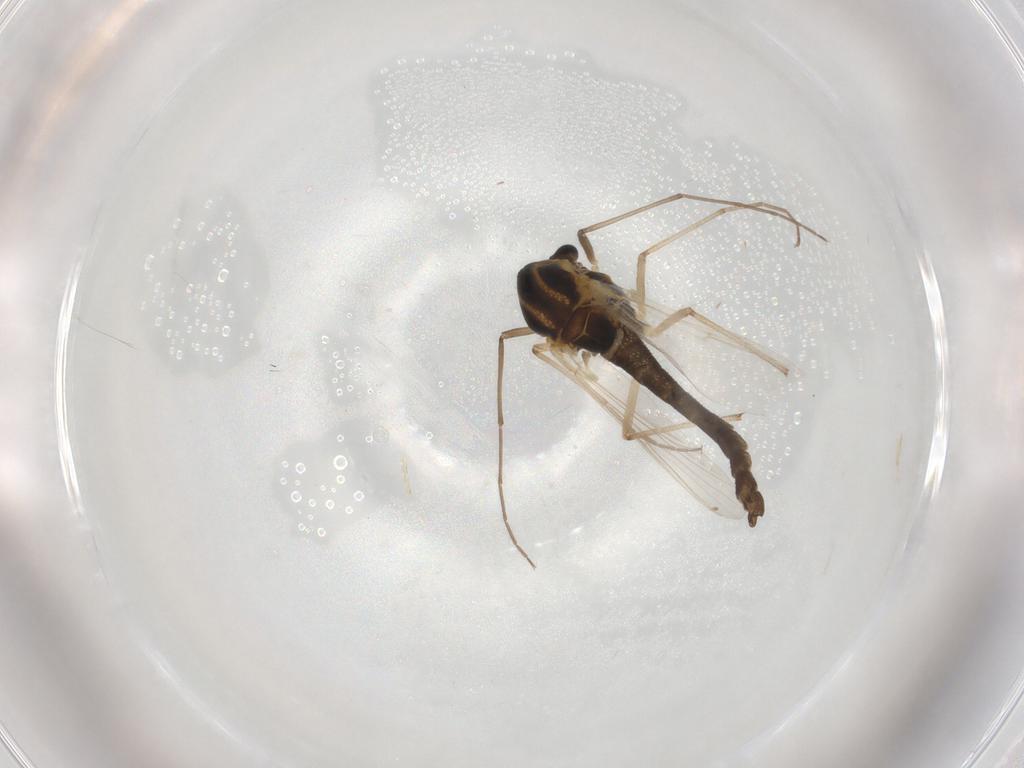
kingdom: Animalia
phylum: Arthropoda
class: Insecta
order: Diptera
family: Chironomidae
